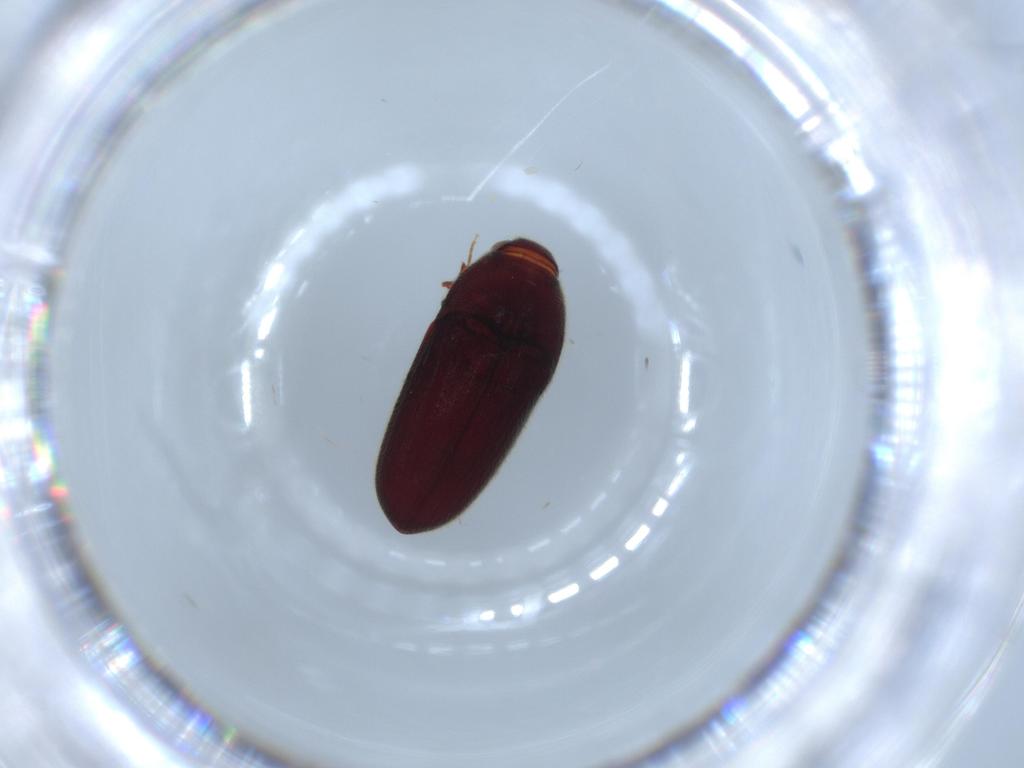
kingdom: Animalia
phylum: Arthropoda
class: Insecta
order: Coleoptera
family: Throscidae
